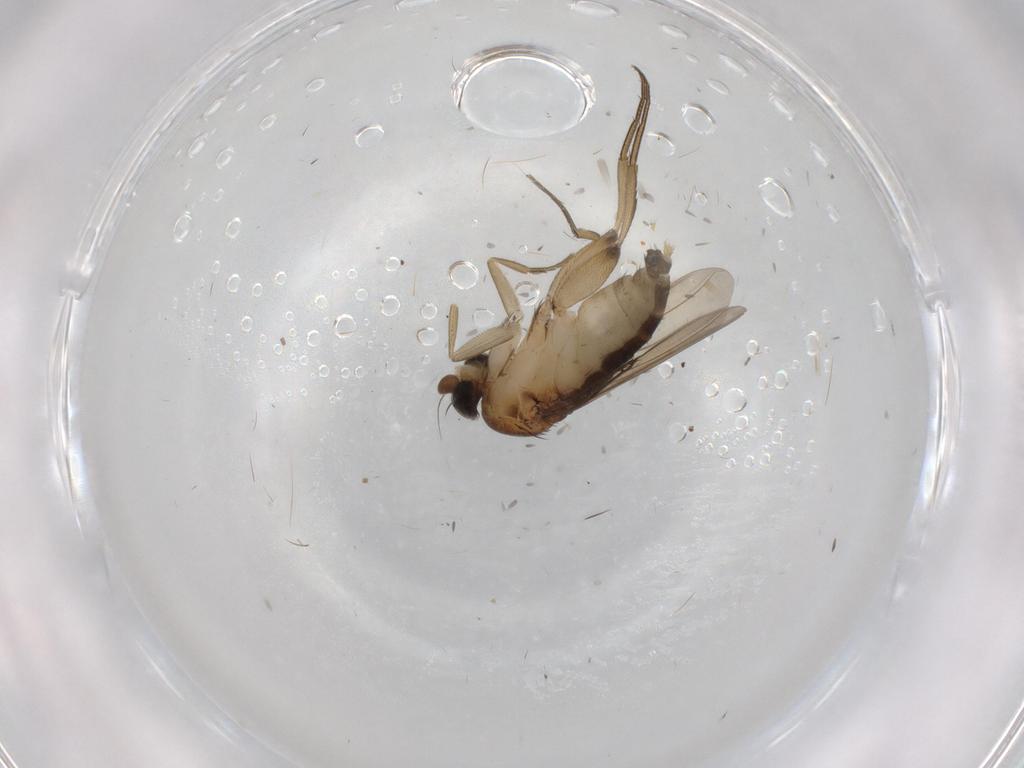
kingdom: Animalia
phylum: Arthropoda
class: Insecta
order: Diptera
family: Phoridae
